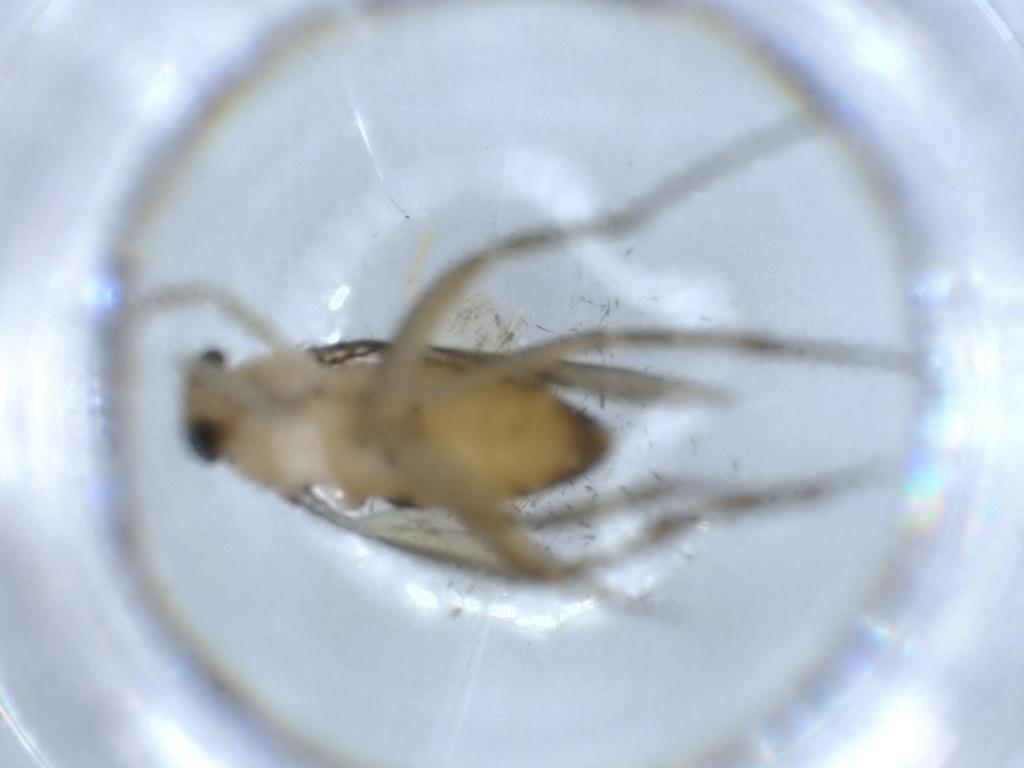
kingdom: Animalia
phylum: Arthropoda
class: Insecta
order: Diptera
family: Phoridae
